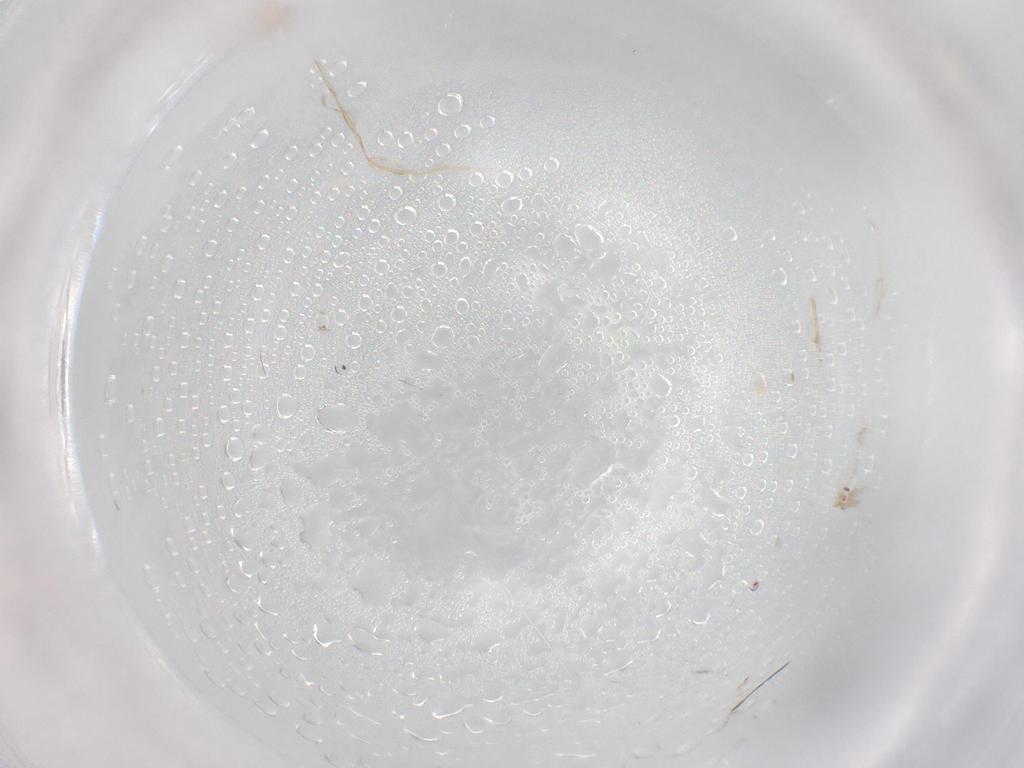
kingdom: Animalia
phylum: Arthropoda
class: Insecta
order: Diptera
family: Cecidomyiidae
